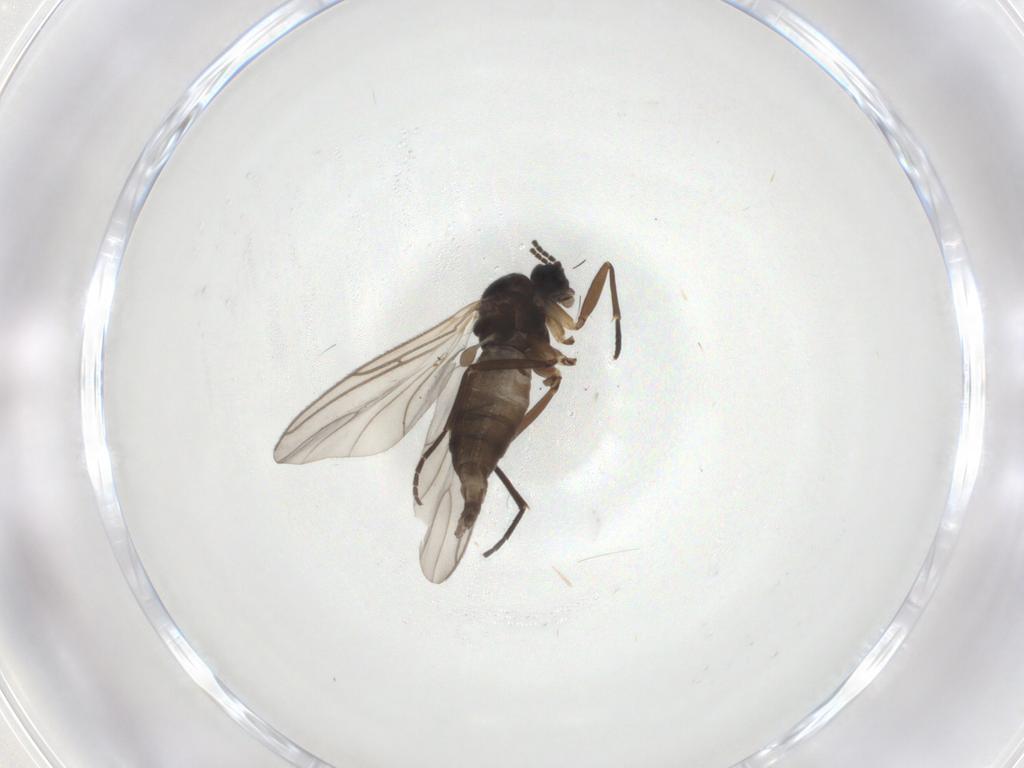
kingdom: Animalia
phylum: Arthropoda
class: Insecta
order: Diptera
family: Sciaridae
